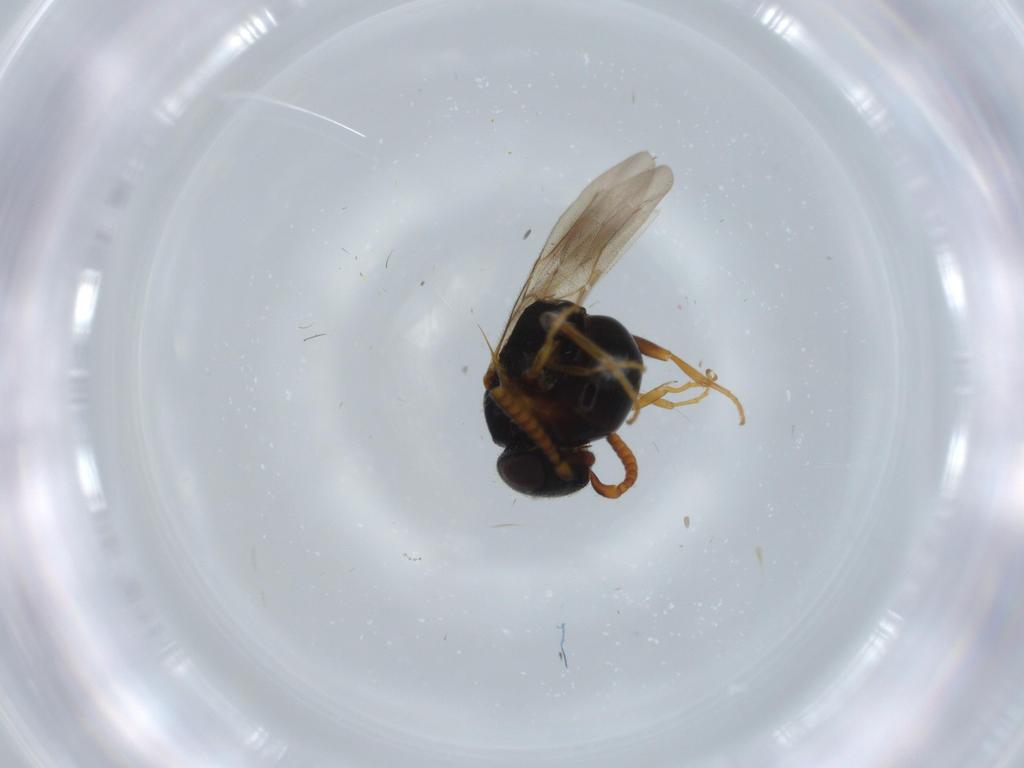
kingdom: Animalia
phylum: Arthropoda
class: Insecta
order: Hymenoptera
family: Bethylidae
